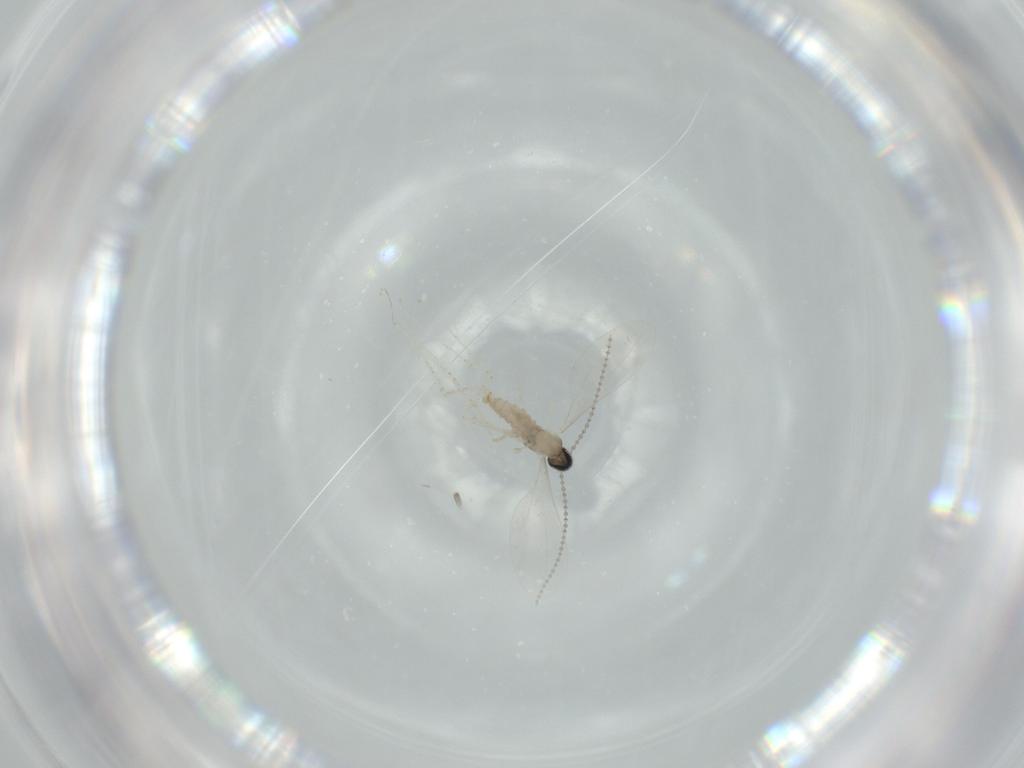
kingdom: Animalia
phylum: Arthropoda
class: Insecta
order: Diptera
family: Cecidomyiidae
